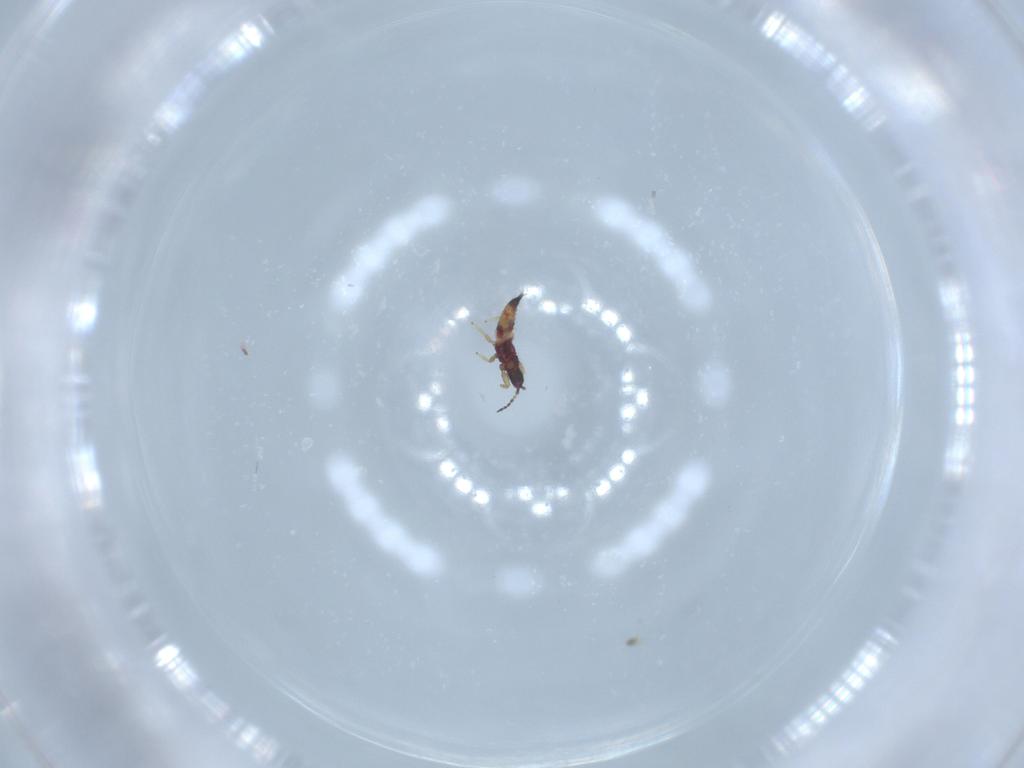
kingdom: Animalia
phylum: Arthropoda
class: Insecta
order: Thysanoptera
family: Phlaeothripidae
